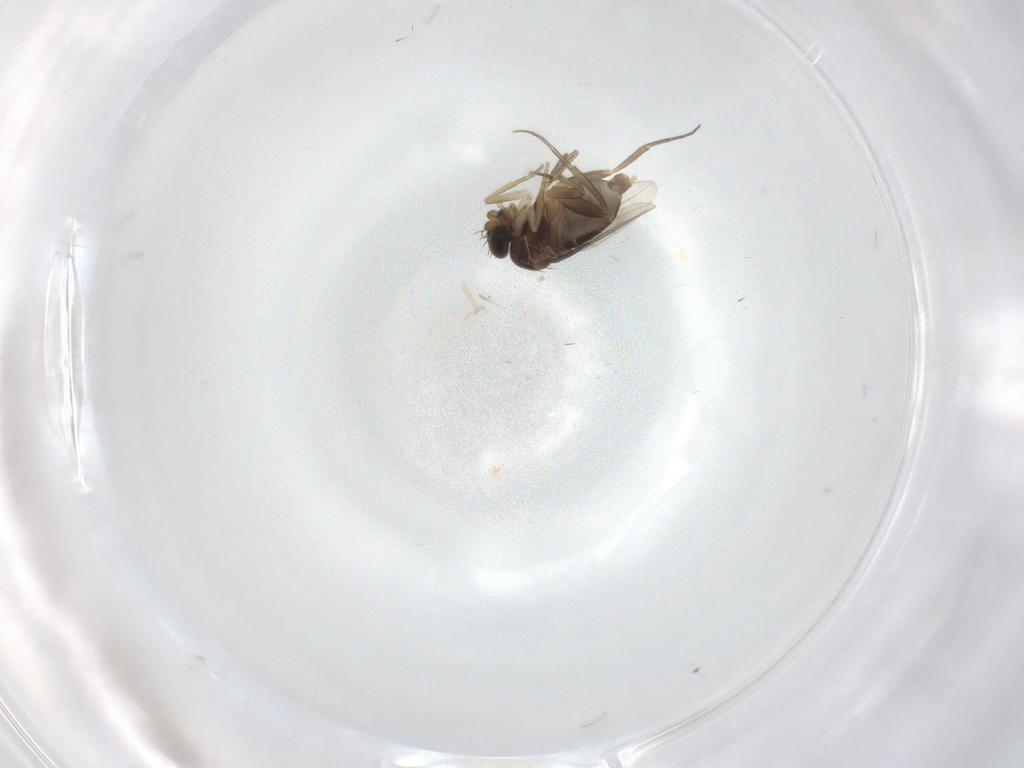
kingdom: Animalia
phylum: Arthropoda
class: Insecta
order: Diptera
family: Phoridae
